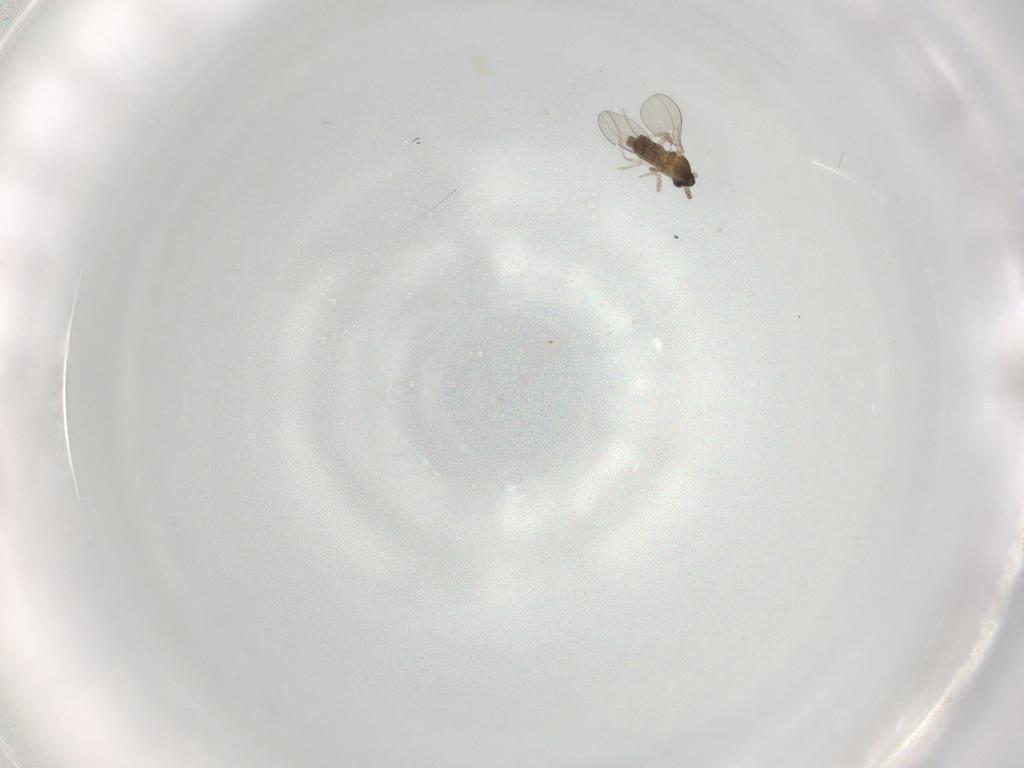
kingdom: Animalia
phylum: Arthropoda
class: Insecta
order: Diptera
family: Cecidomyiidae
